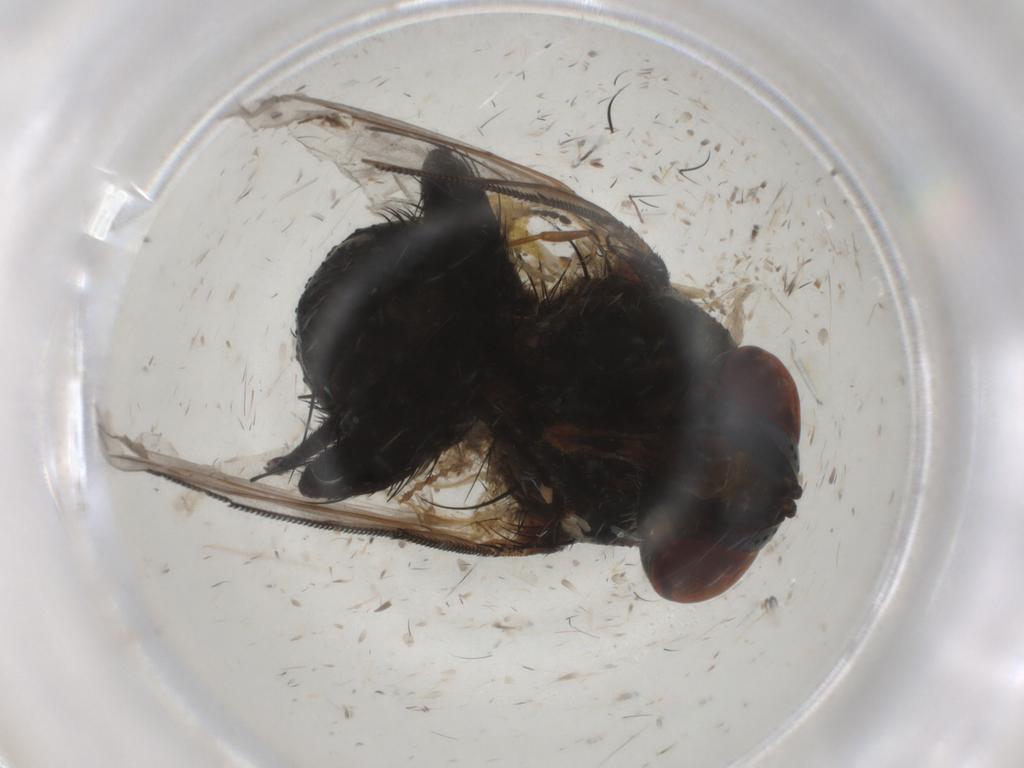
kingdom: Animalia
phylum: Arthropoda
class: Insecta
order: Diptera
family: Tachinidae
